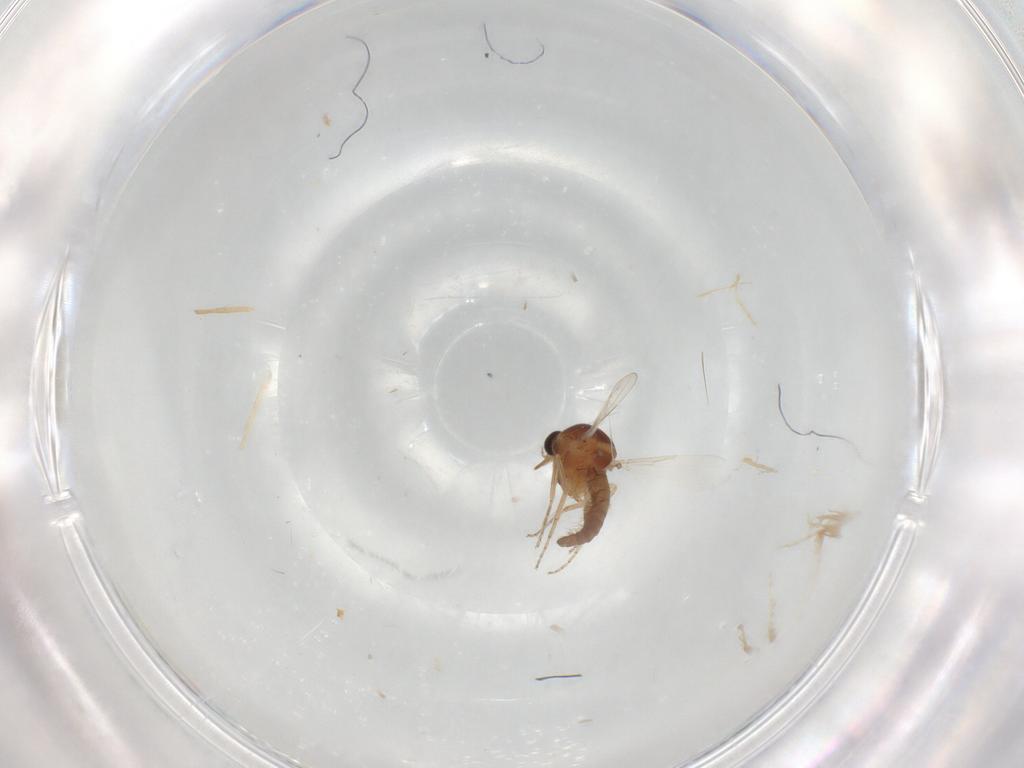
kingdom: Animalia
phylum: Arthropoda
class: Insecta
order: Diptera
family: Ceratopogonidae
